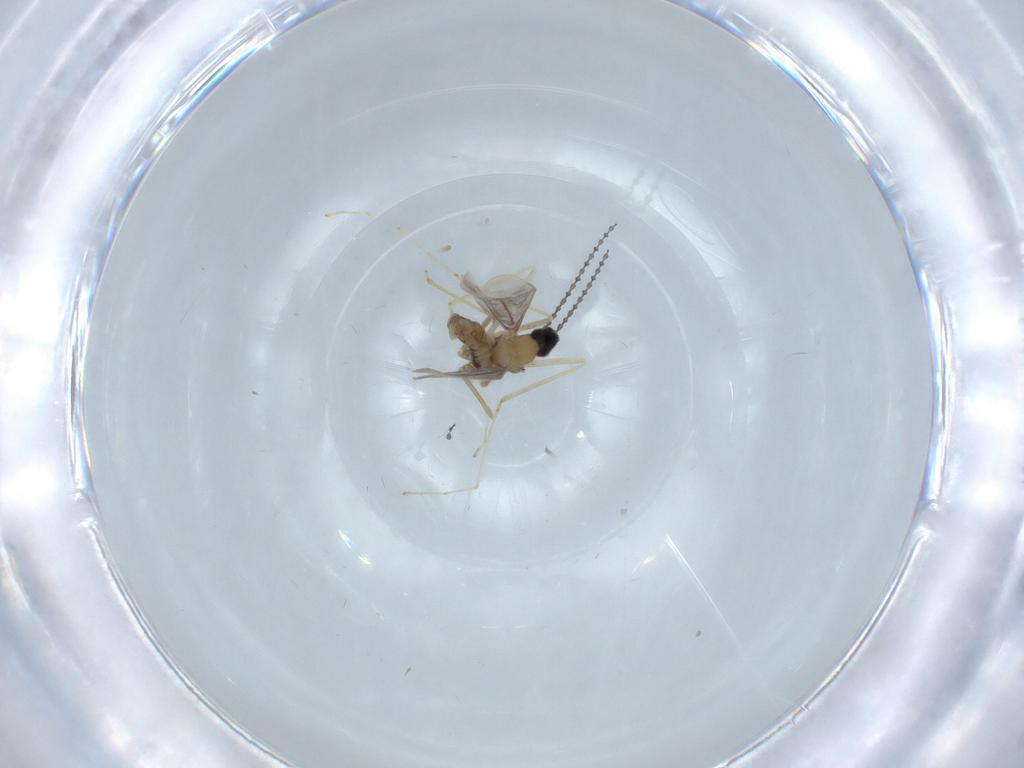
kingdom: Animalia
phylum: Arthropoda
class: Insecta
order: Diptera
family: Cecidomyiidae
